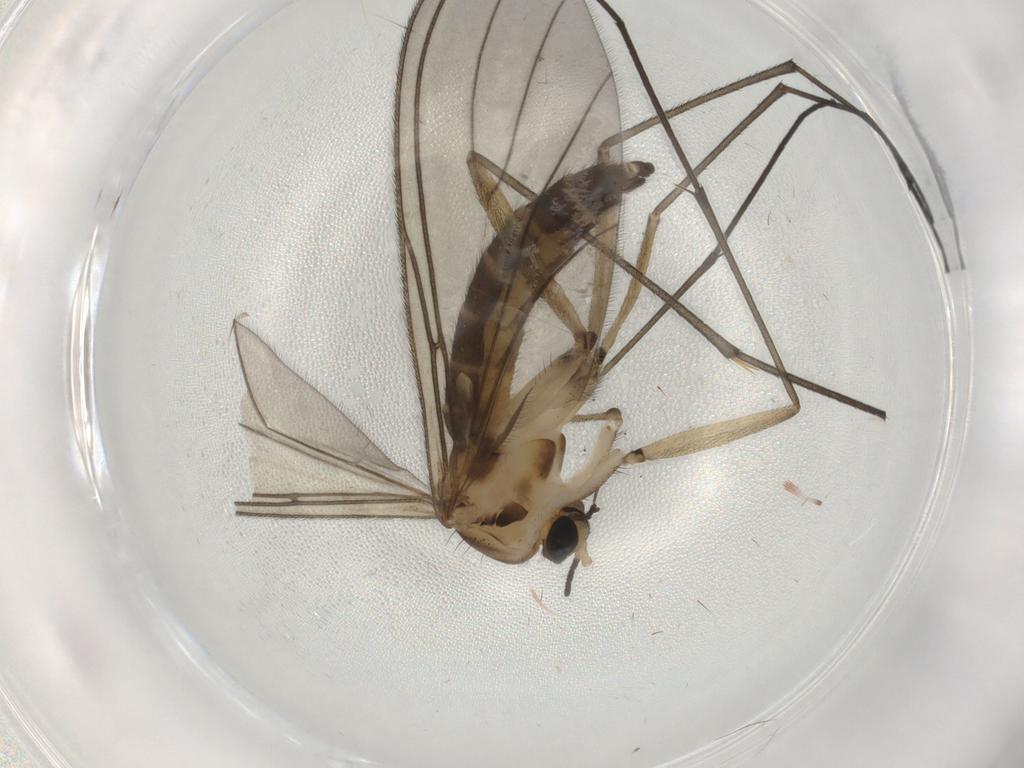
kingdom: Animalia
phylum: Arthropoda
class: Insecta
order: Diptera
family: Sciaridae
